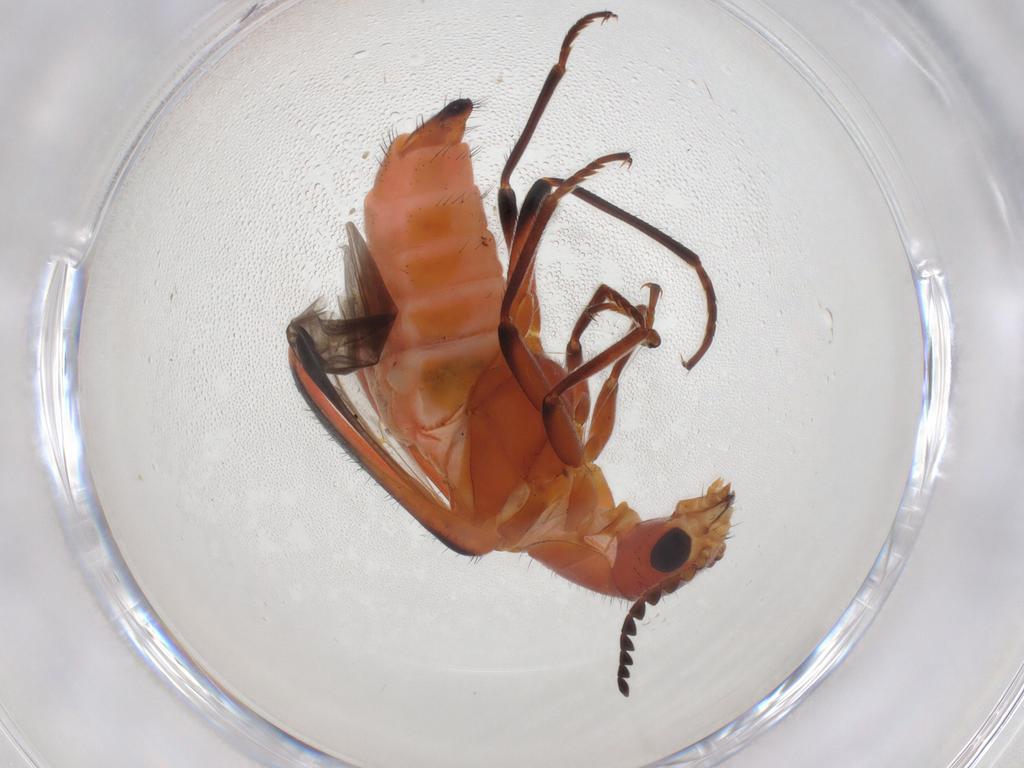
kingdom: Animalia
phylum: Arthropoda
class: Insecta
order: Coleoptera
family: Melyridae
